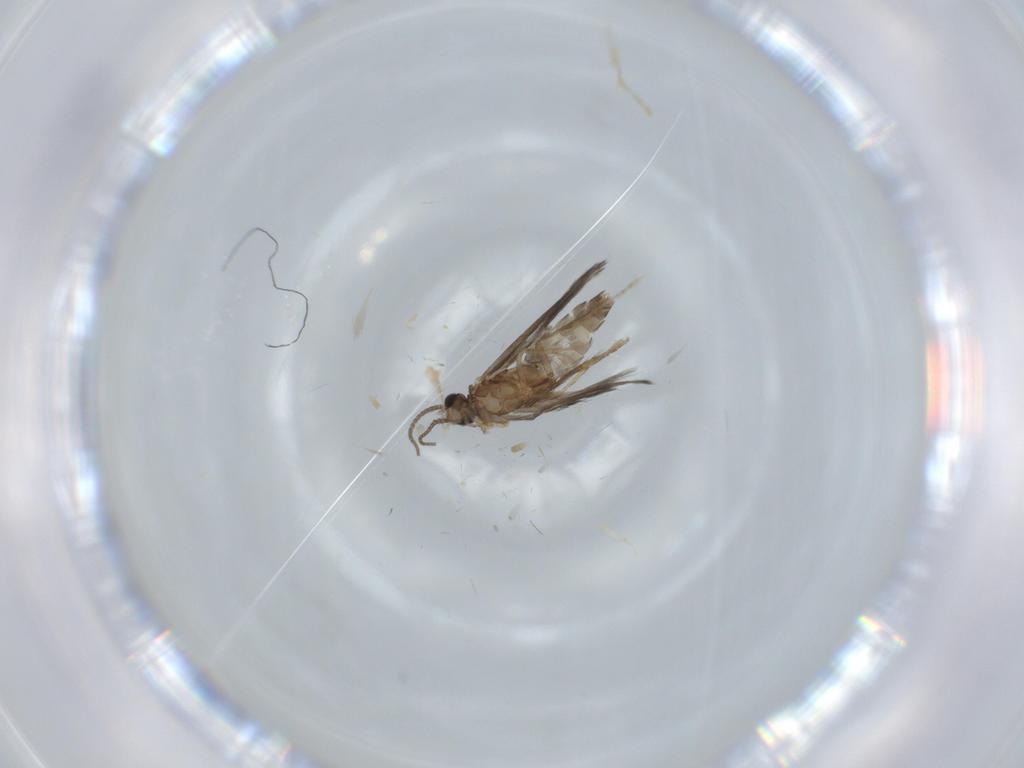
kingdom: Animalia
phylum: Arthropoda
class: Insecta
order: Trichoptera
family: Hydroptilidae
